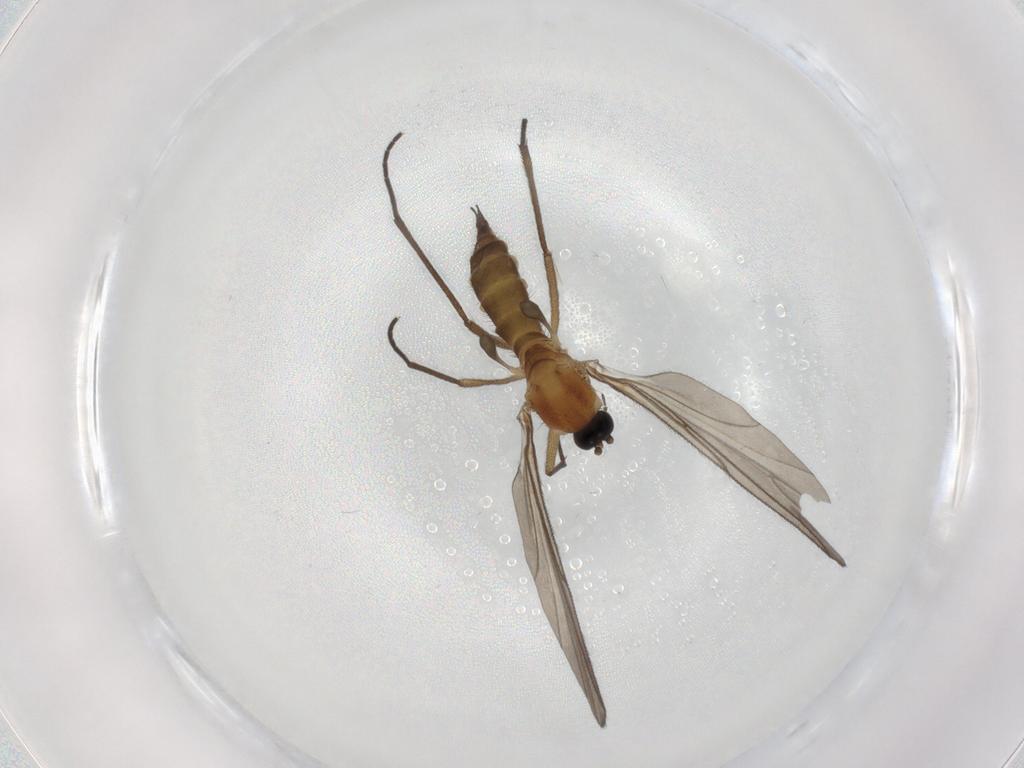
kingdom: Animalia
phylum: Arthropoda
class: Insecta
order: Diptera
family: Sciaridae
